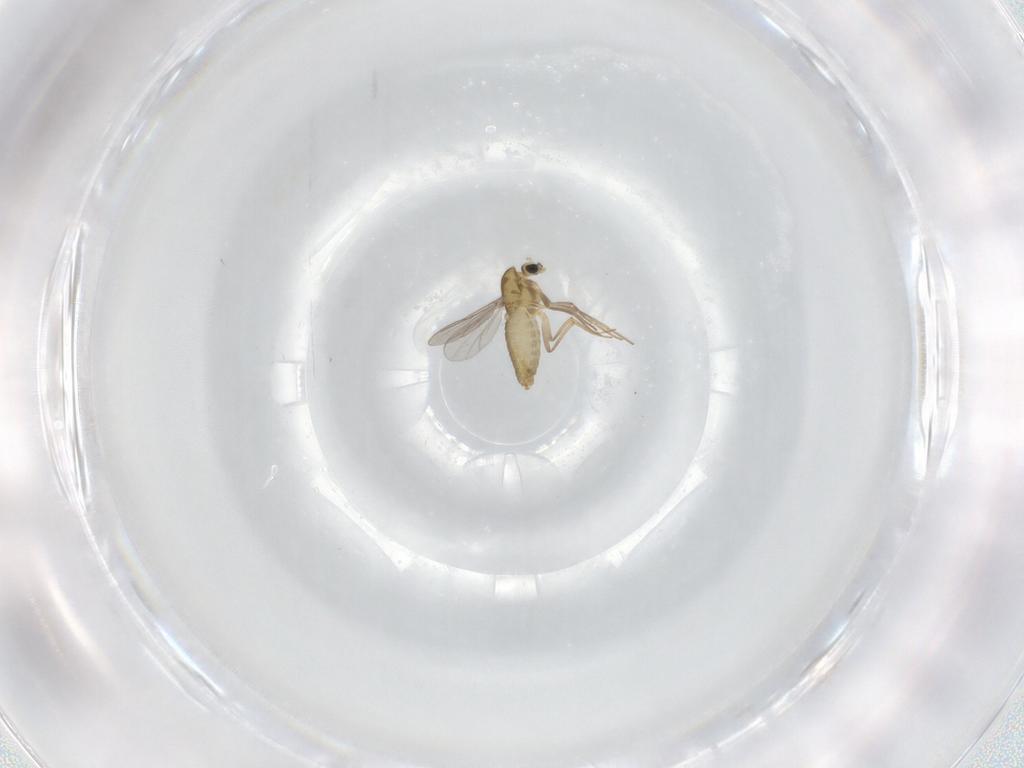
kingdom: Animalia
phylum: Arthropoda
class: Insecta
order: Diptera
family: Chironomidae
